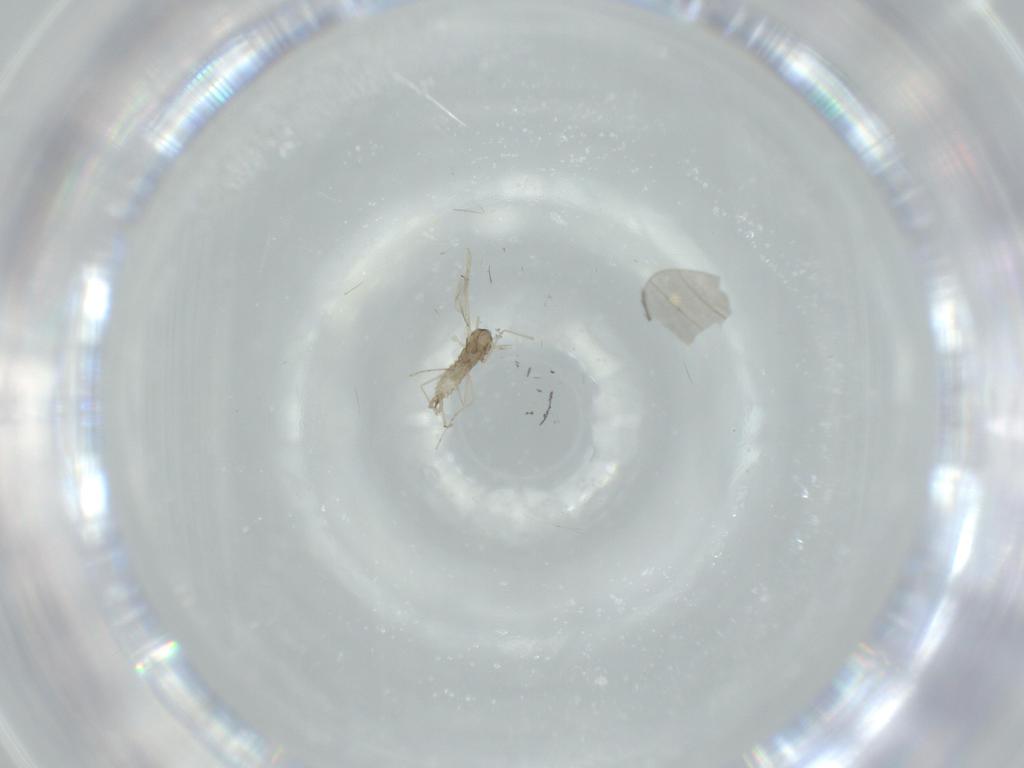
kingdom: Animalia
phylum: Arthropoda
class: Insecta
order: Diptera
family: Ceratopogonidae
